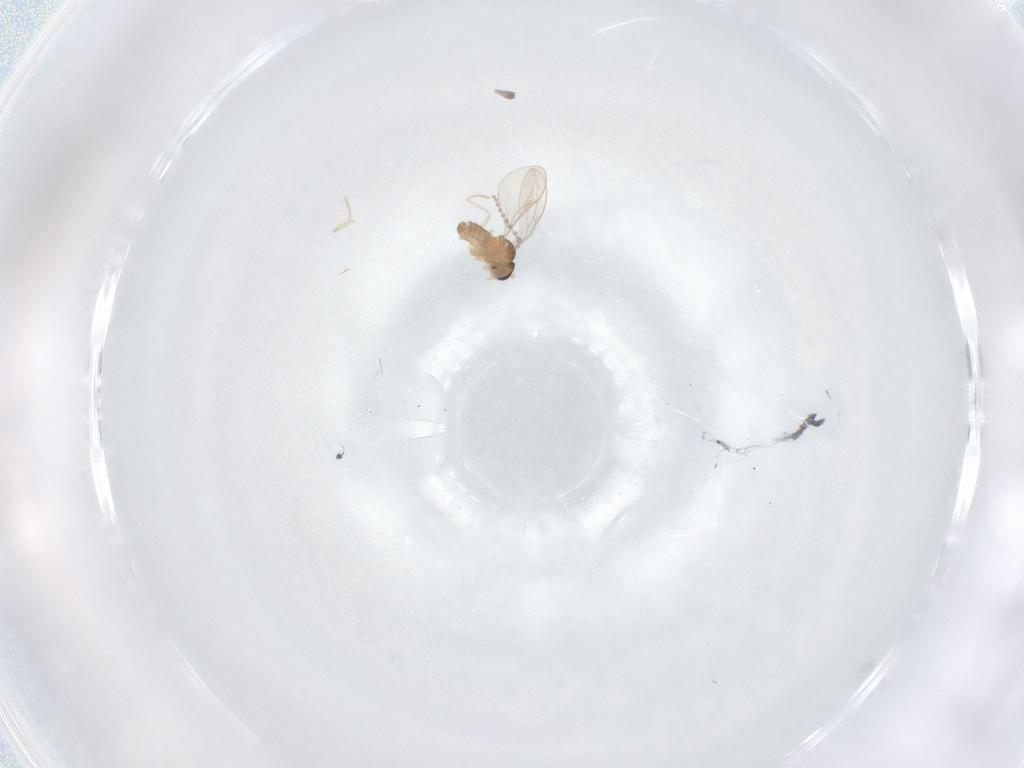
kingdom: Animalia
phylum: Arthropoda
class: Insecta
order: Diptera
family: Cecidomyiidae
